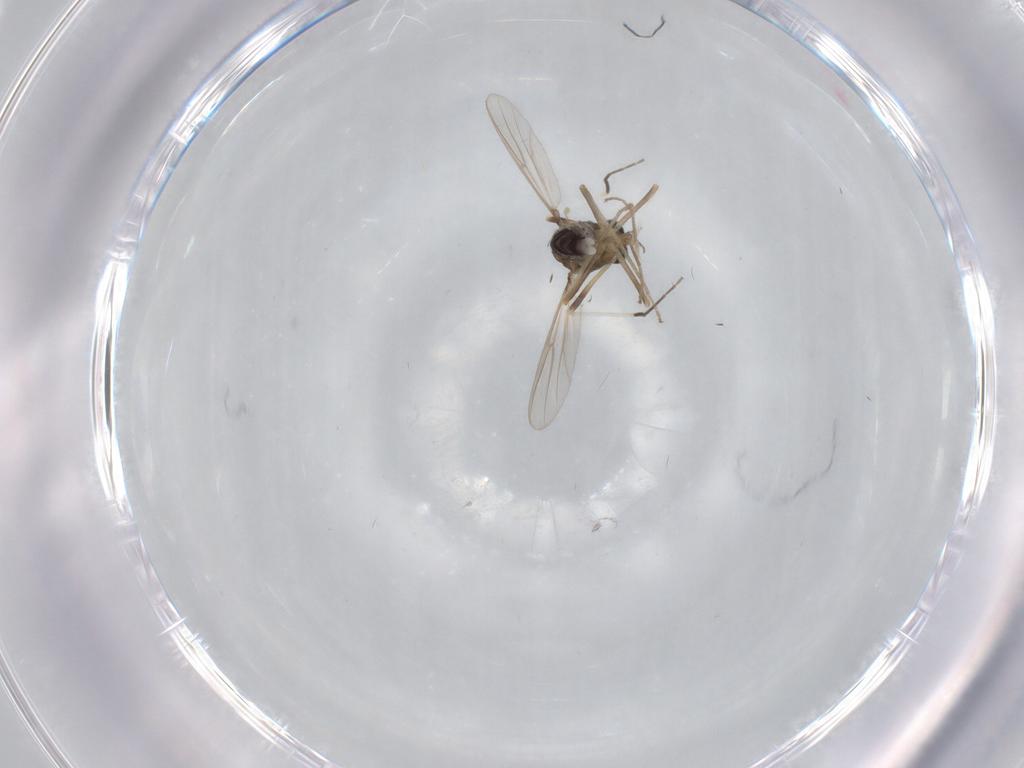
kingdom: Animalia
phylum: Arthropoda
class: Insecta
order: Diptera
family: Chironomidae
